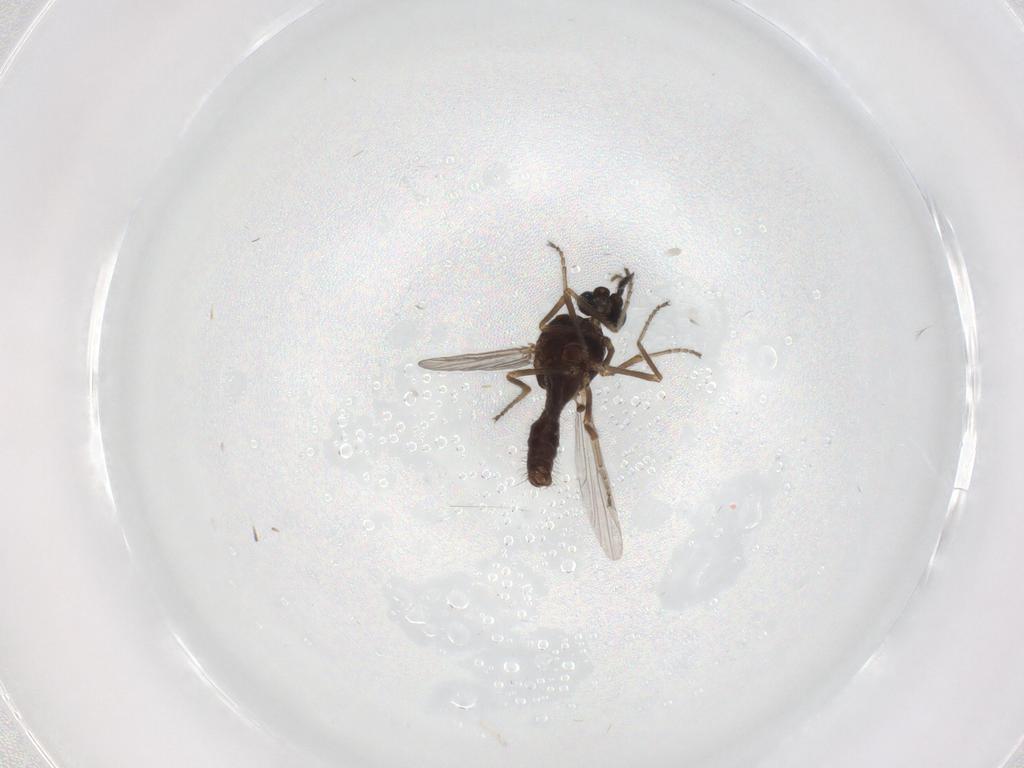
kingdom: Animalia
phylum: Arthropoda
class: Insecta
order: Diptera
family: Ceratopogonidae
